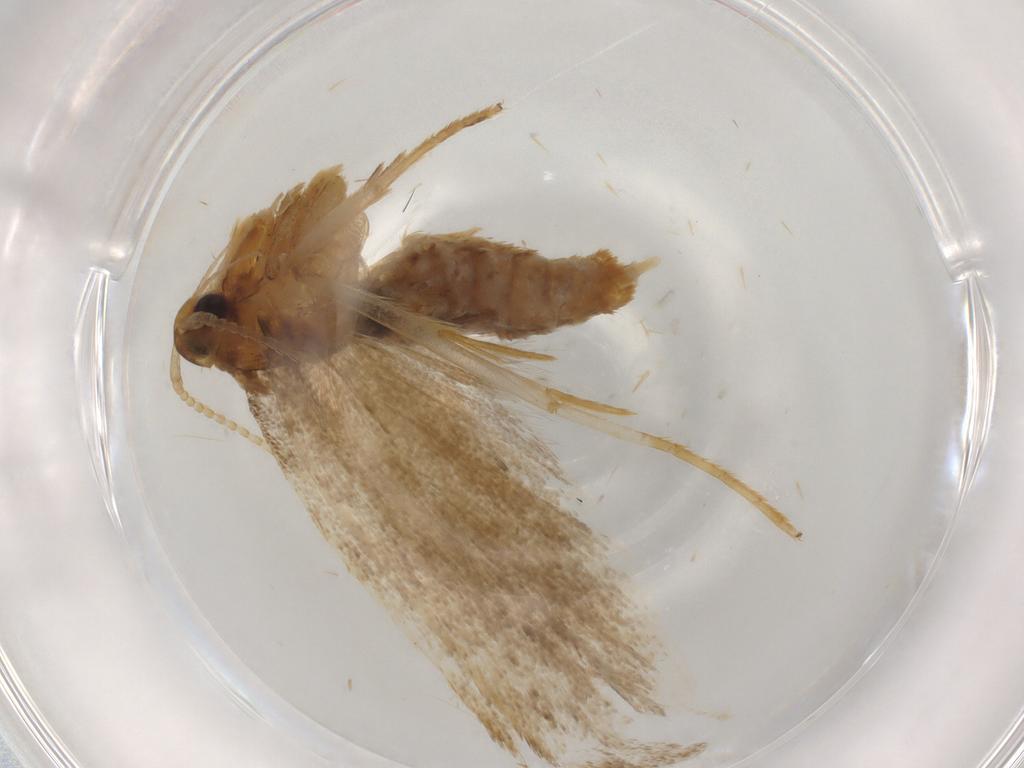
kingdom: Animalia
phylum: Arthropoda
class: Insecta
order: Lepidoptera
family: Lecithoceridae
